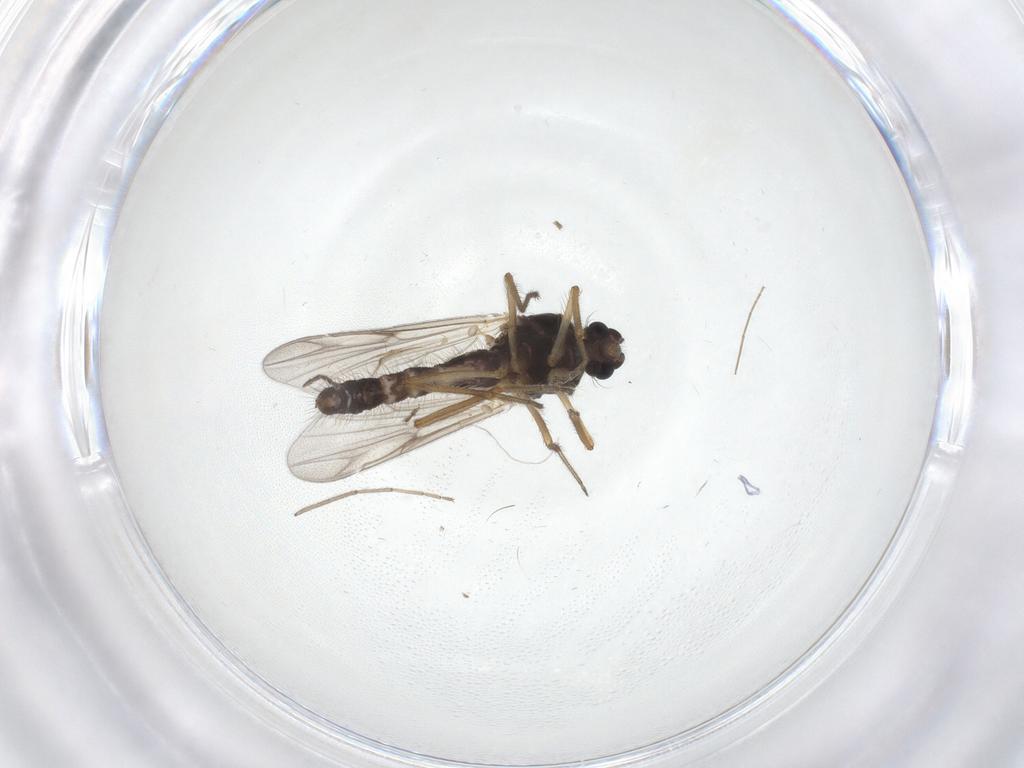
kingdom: Animalia
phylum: Arthropoda
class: Insecta
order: Diptera
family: Ceratopogonidae
